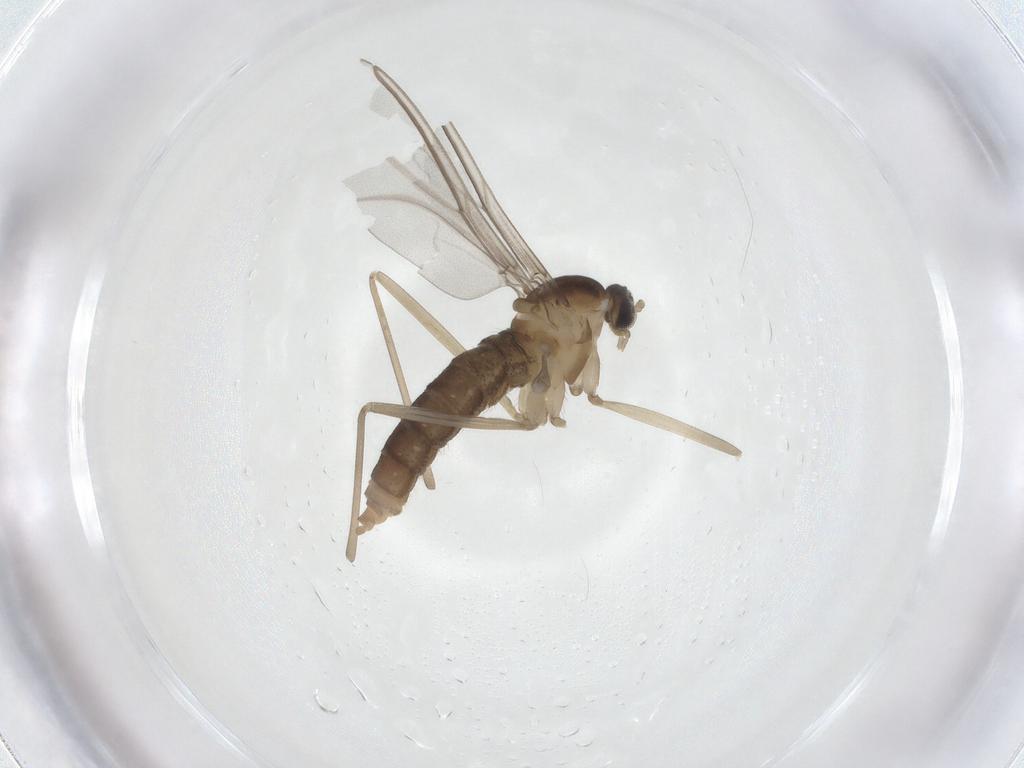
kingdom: Animalia
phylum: Arthropoda
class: Insecta
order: Diptera
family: Cecidomyiidae
